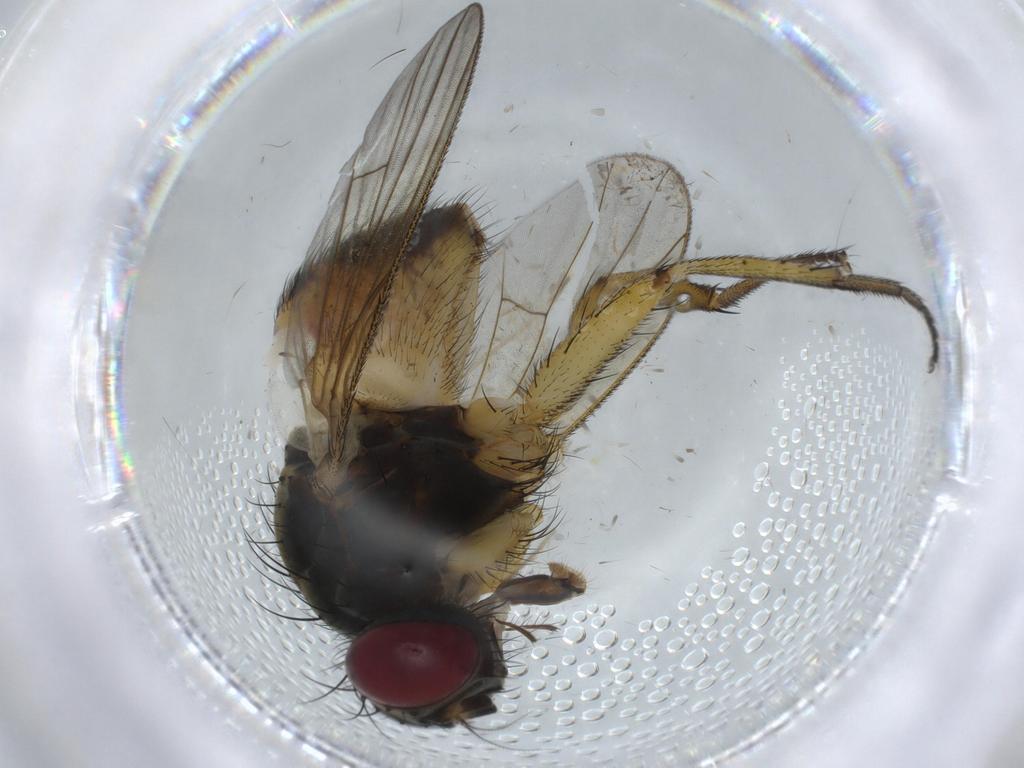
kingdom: Animalia
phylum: Arthropoda
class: Insecta
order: Diptera
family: Muscidae
